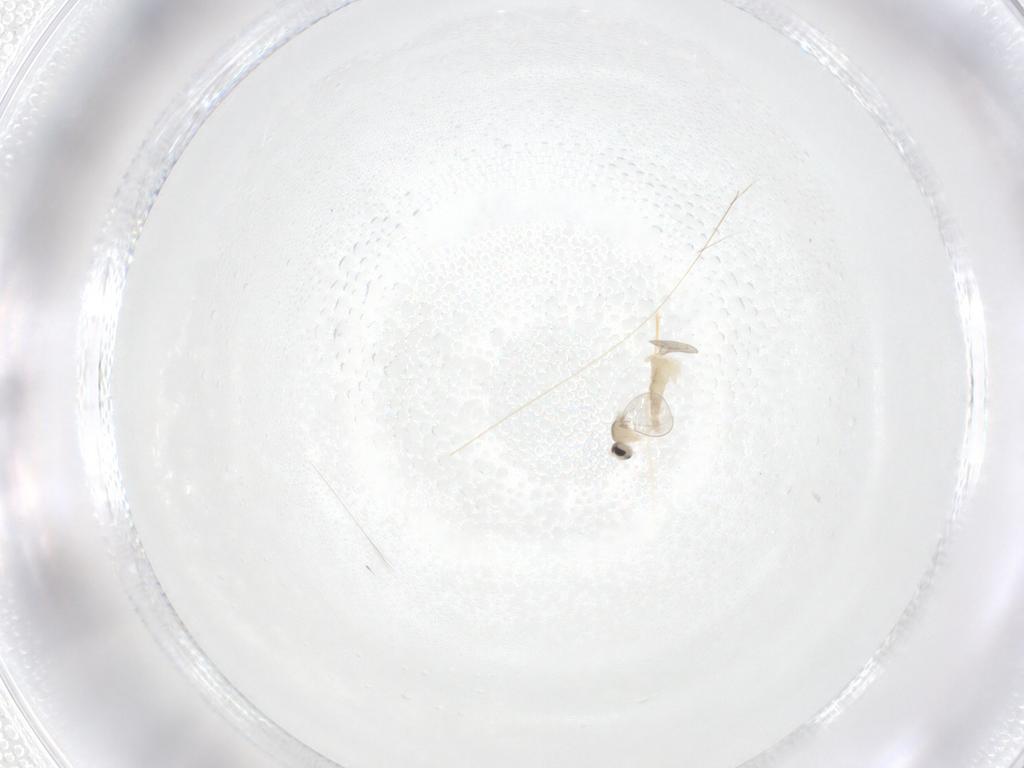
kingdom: Animalia
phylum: Arthropoda
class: Insecta
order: Diptera
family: Cecidomyiidae
